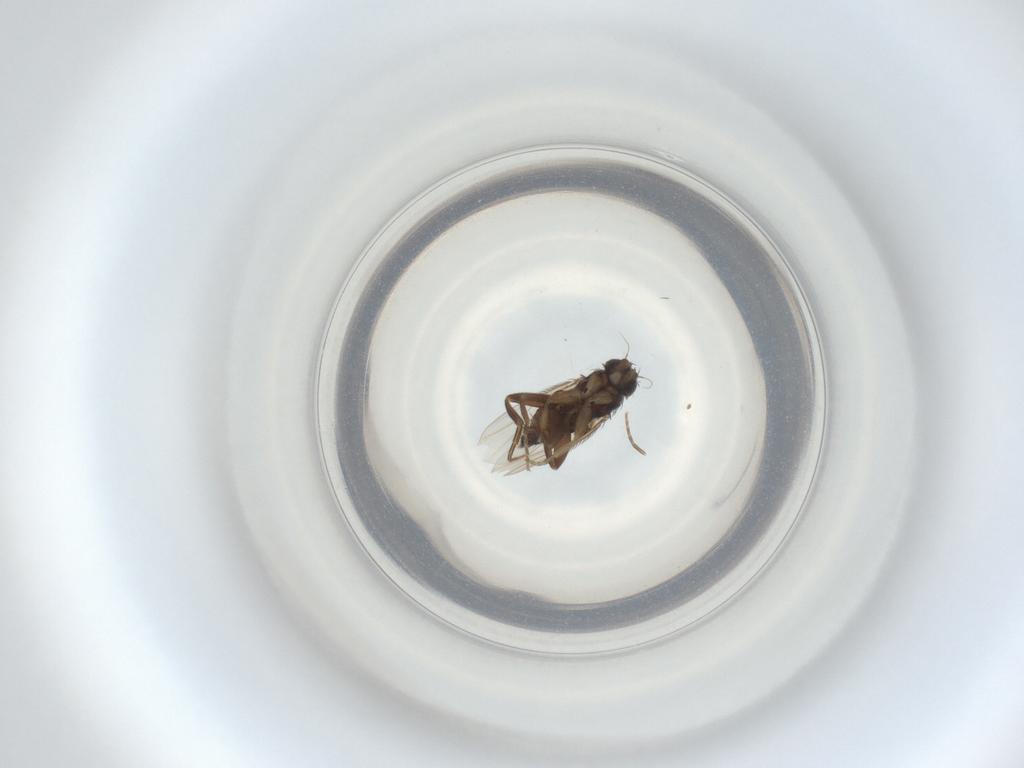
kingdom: Animalia
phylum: Arthropoda
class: Insecta
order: Diptera
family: Phoridae
